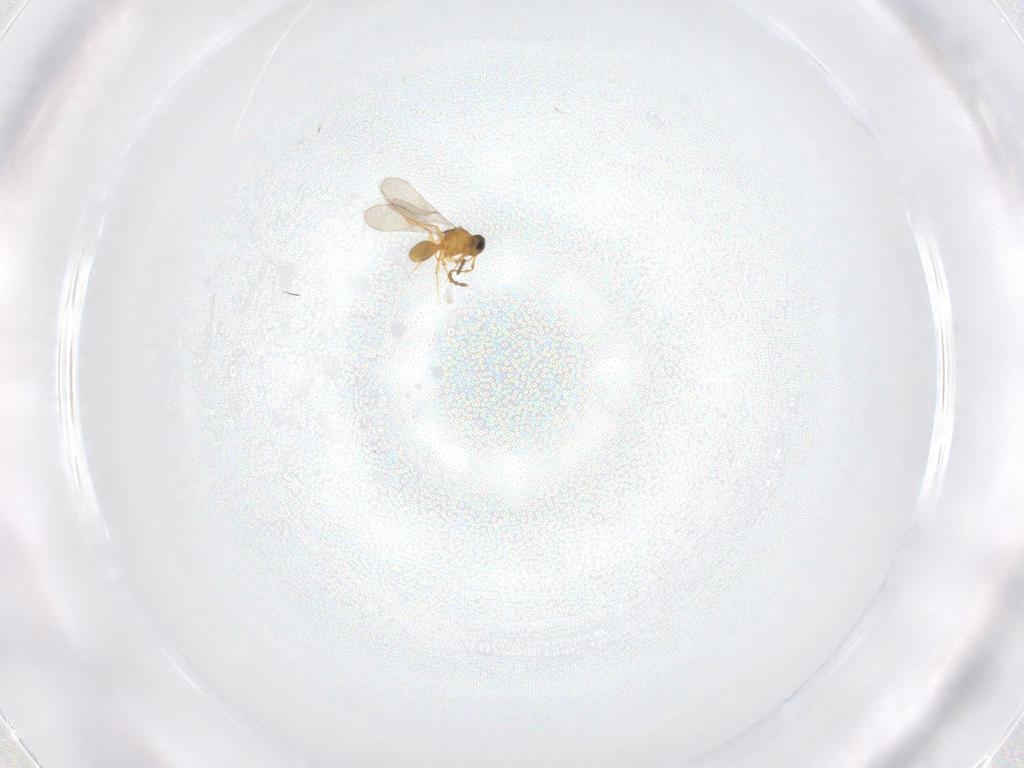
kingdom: Animalia
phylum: Arthropoda
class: Insecta
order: Hymenoptera
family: Platygastridae
